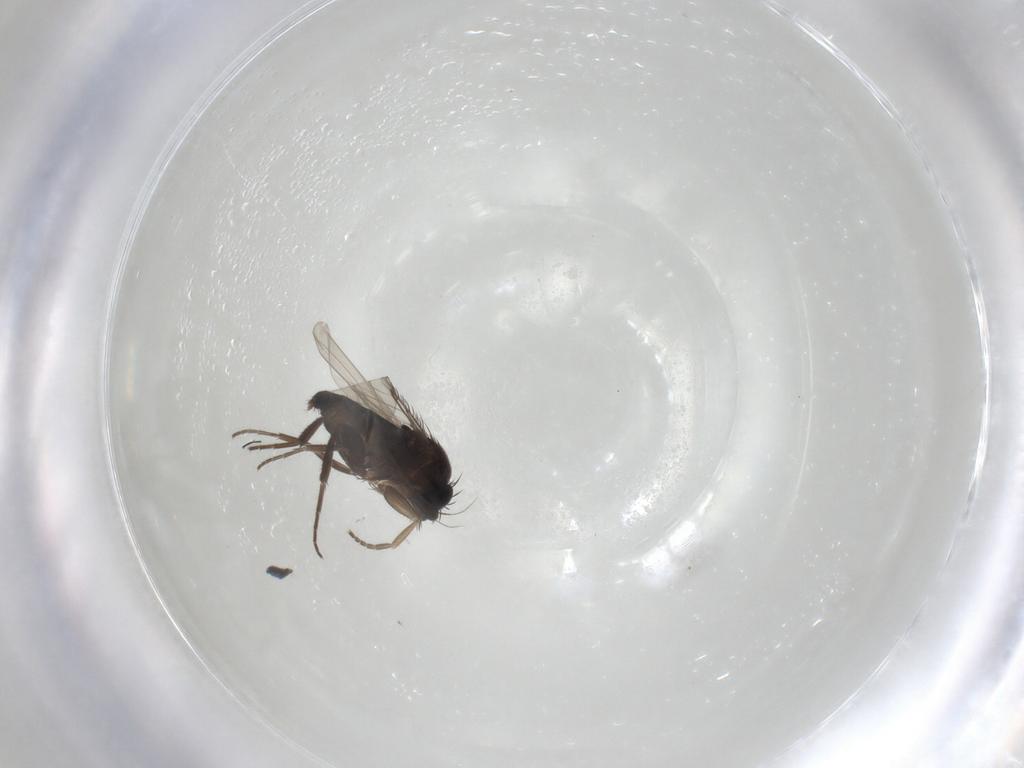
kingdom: Animalia
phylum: Arthropoda
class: Insecta
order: Diptera
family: Phoridae
